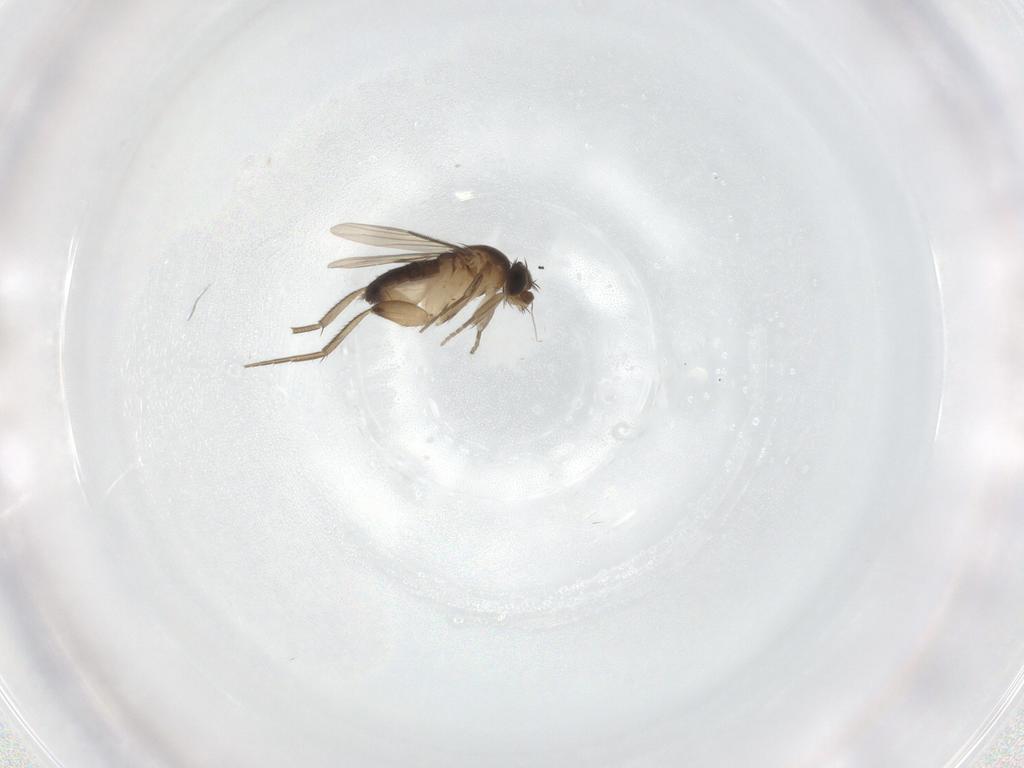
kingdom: Animalia
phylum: Arthropoda
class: Insecta
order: Diptera
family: Phoridae
